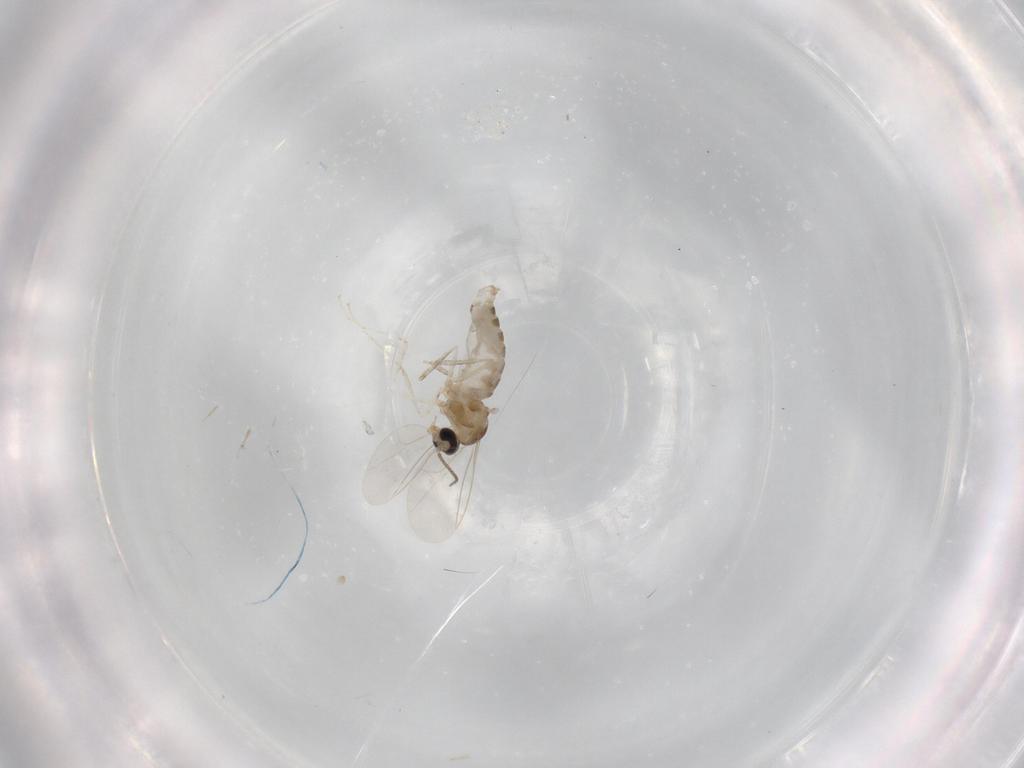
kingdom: Animalia
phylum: Arthropoda
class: Insecta
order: Diptera
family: Cecidomyiidae
